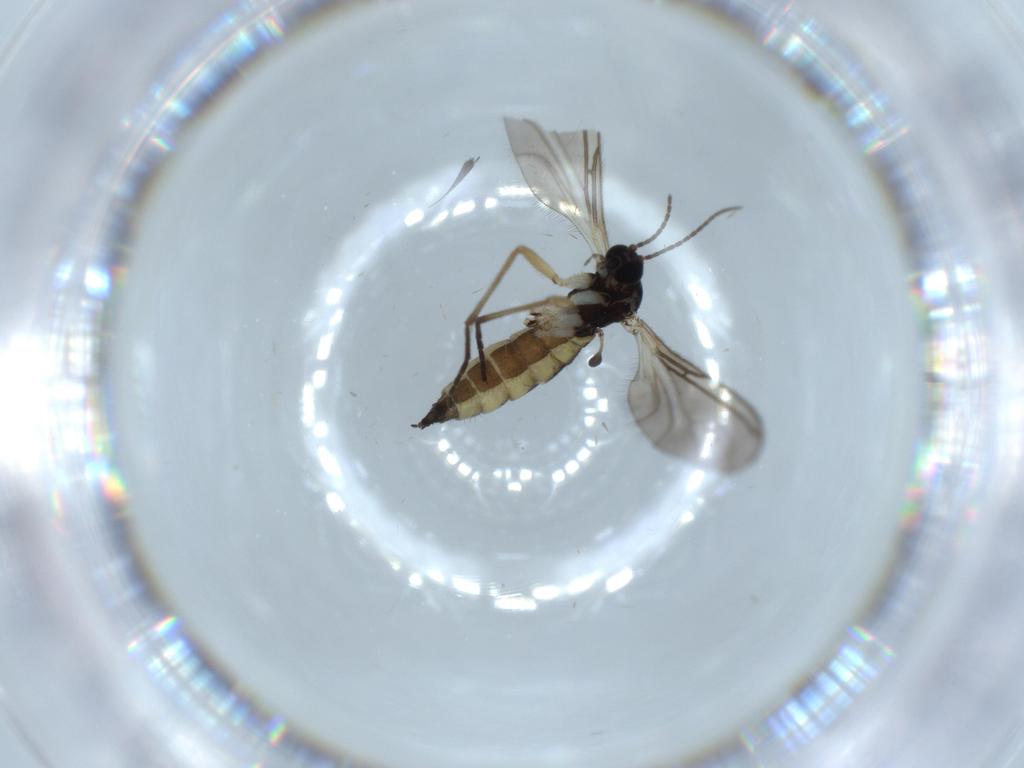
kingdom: Animalia
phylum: Arthropoda
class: Insecta
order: Diptera
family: Sciaridae
